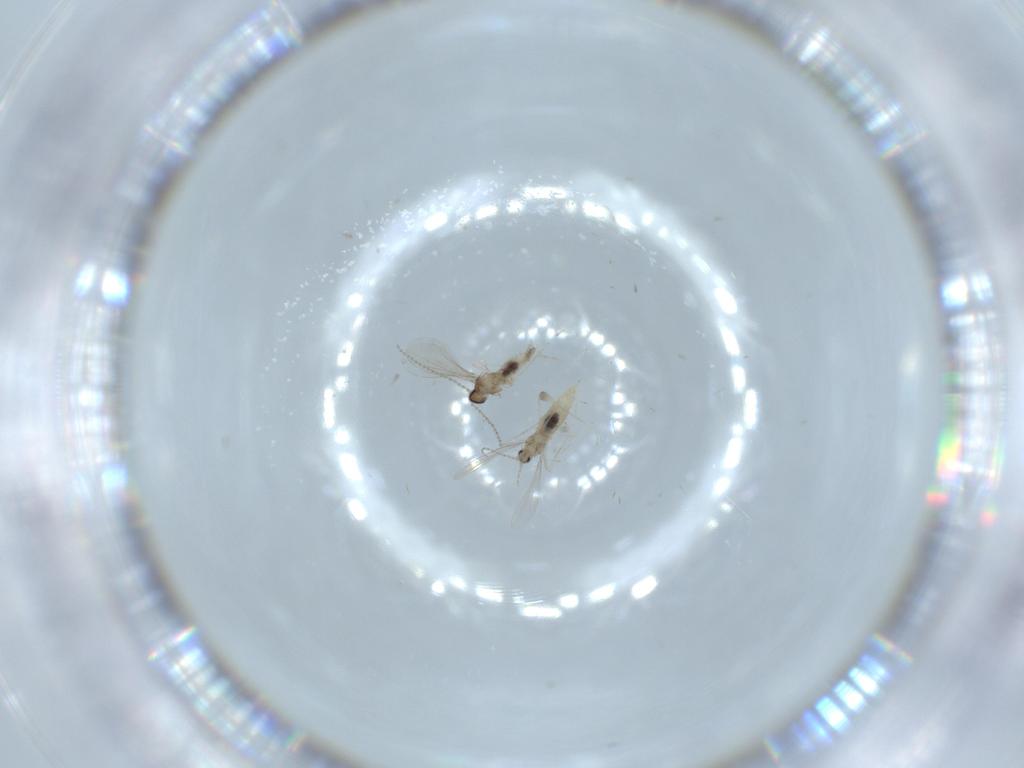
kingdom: Animalia
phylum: Arthropoda
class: Insecta
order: Diptera
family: Cecidomyiidae
